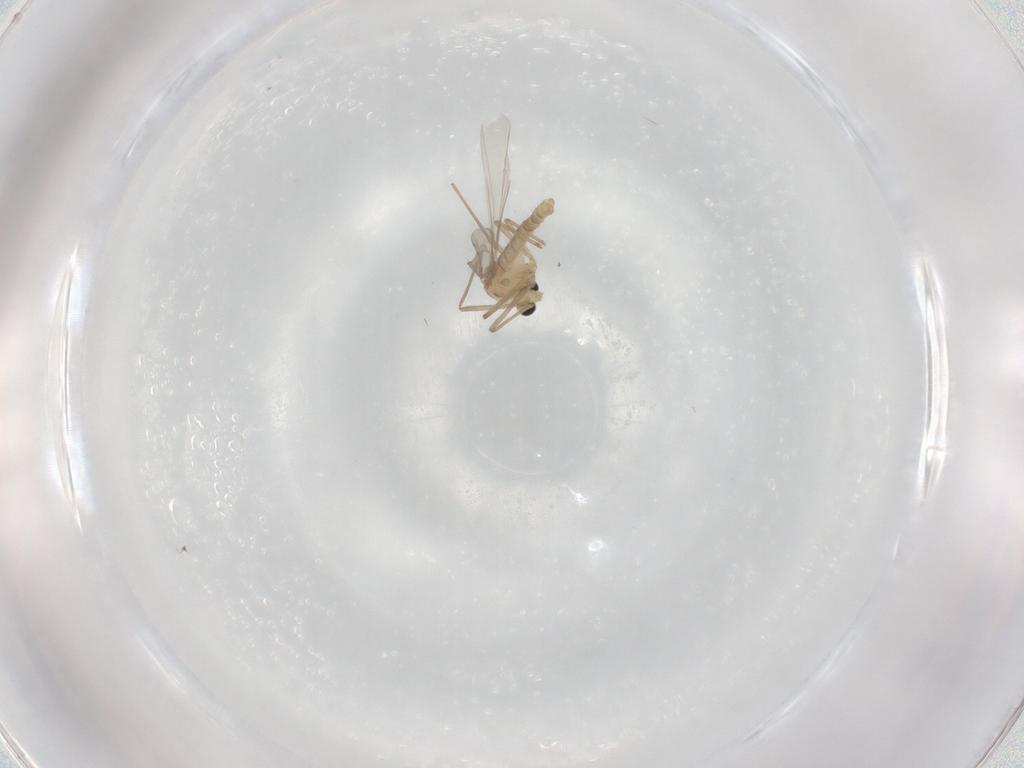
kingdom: Animalia
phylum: Arthropoda
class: Insecta
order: Diptera
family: Chironomidae
